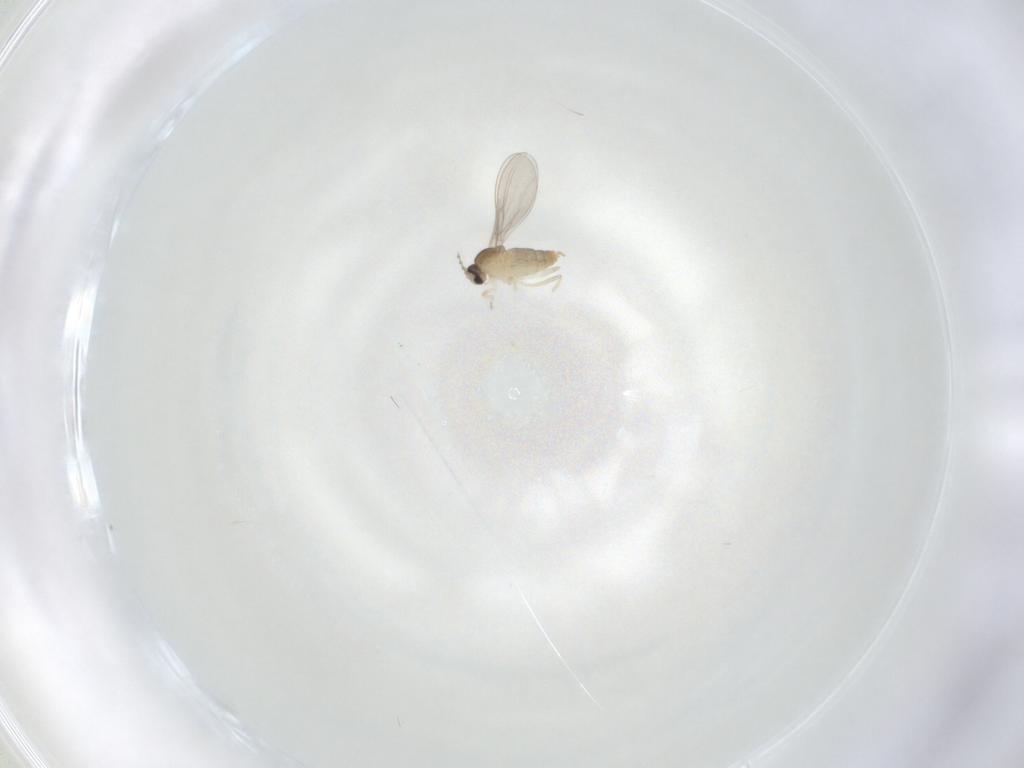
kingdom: Animalia
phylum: Arthropoda
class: Insecta
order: Diptera
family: Cecidomyiidae
